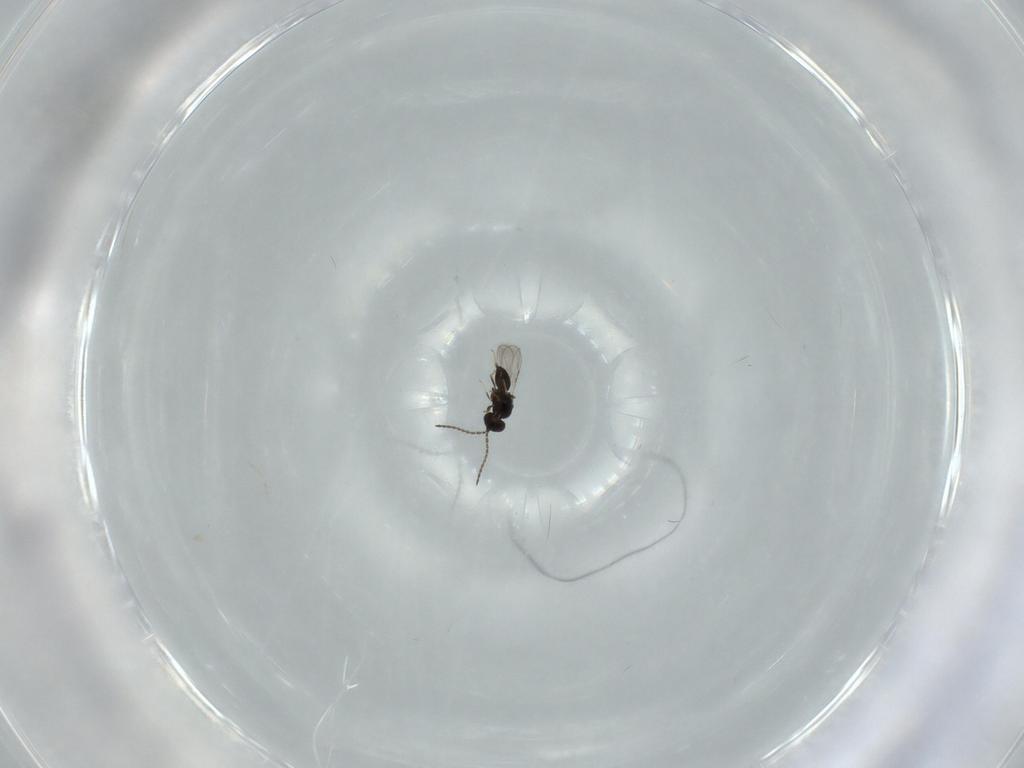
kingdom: Animalia
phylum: Arthropoda
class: Insecta
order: Hymenoptera
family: Ceraphronidae
